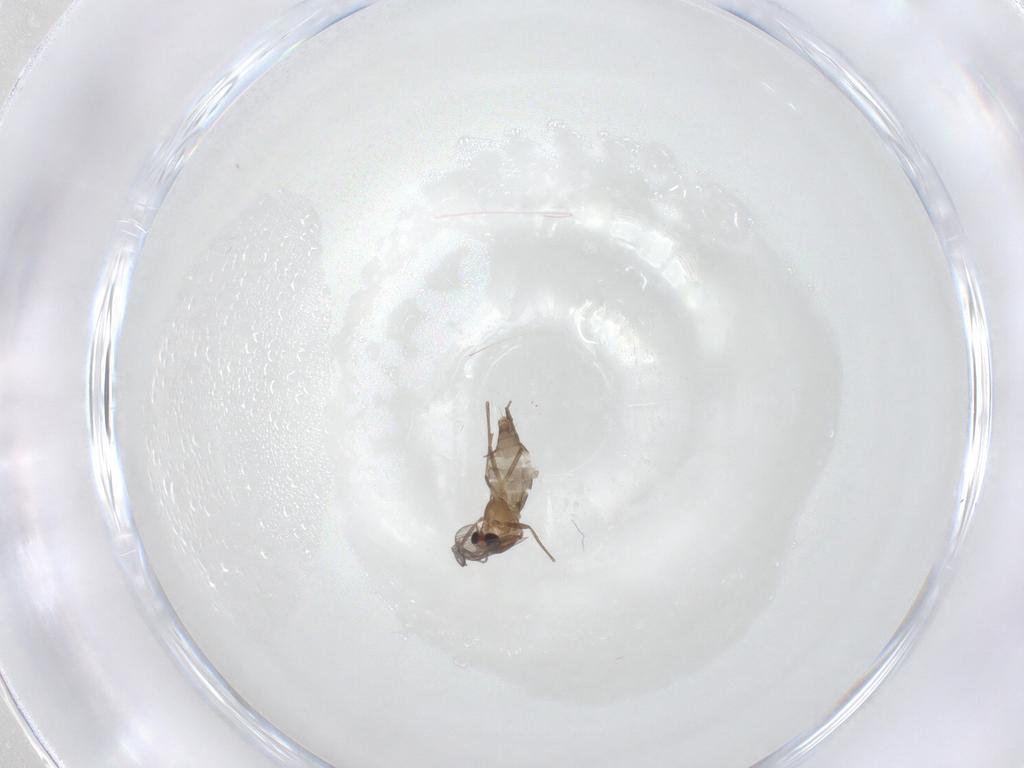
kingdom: Animalia
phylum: Arthropoda
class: Insecta
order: Diptera
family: Chironomidae
